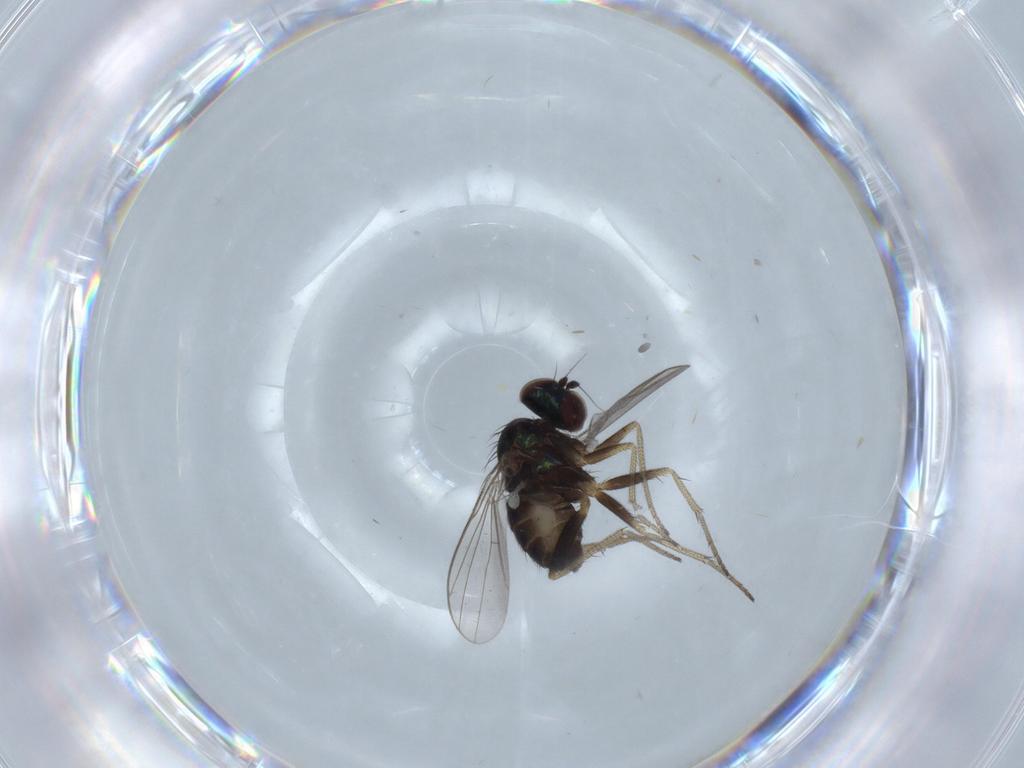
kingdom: Animalia
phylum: Arthropoda
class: Insecta
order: Diptera
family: Dolichopodidae
